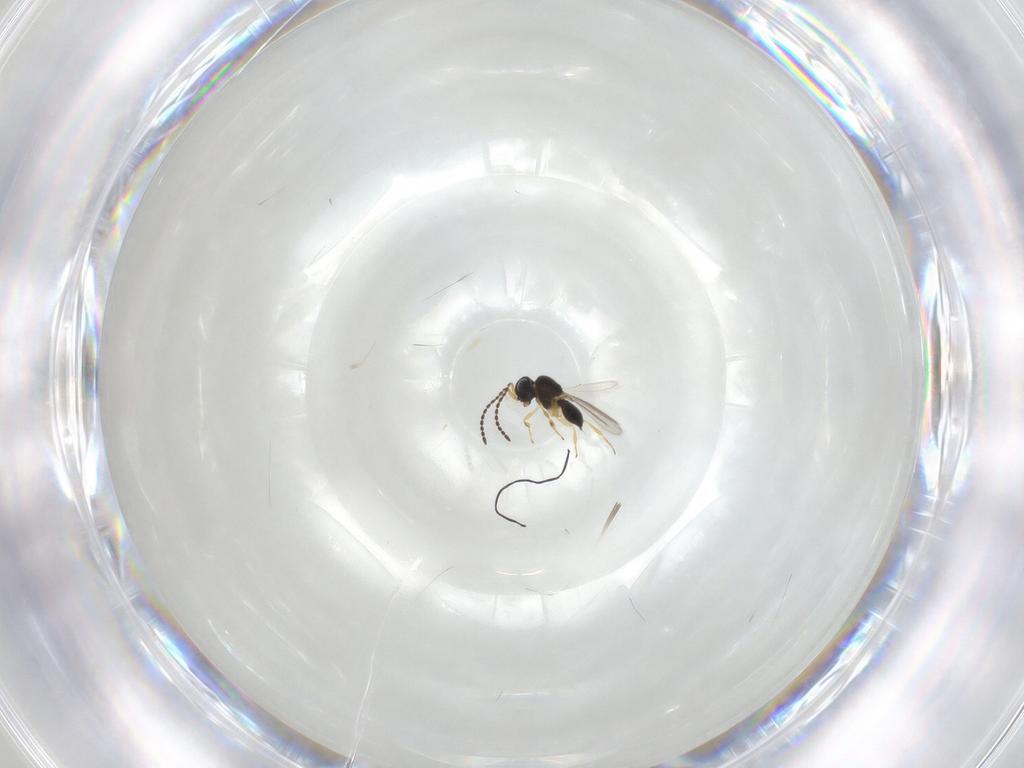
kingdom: Animalia
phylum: Arthropoda
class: Insecta
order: Hymenoptera
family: Scelionidae
